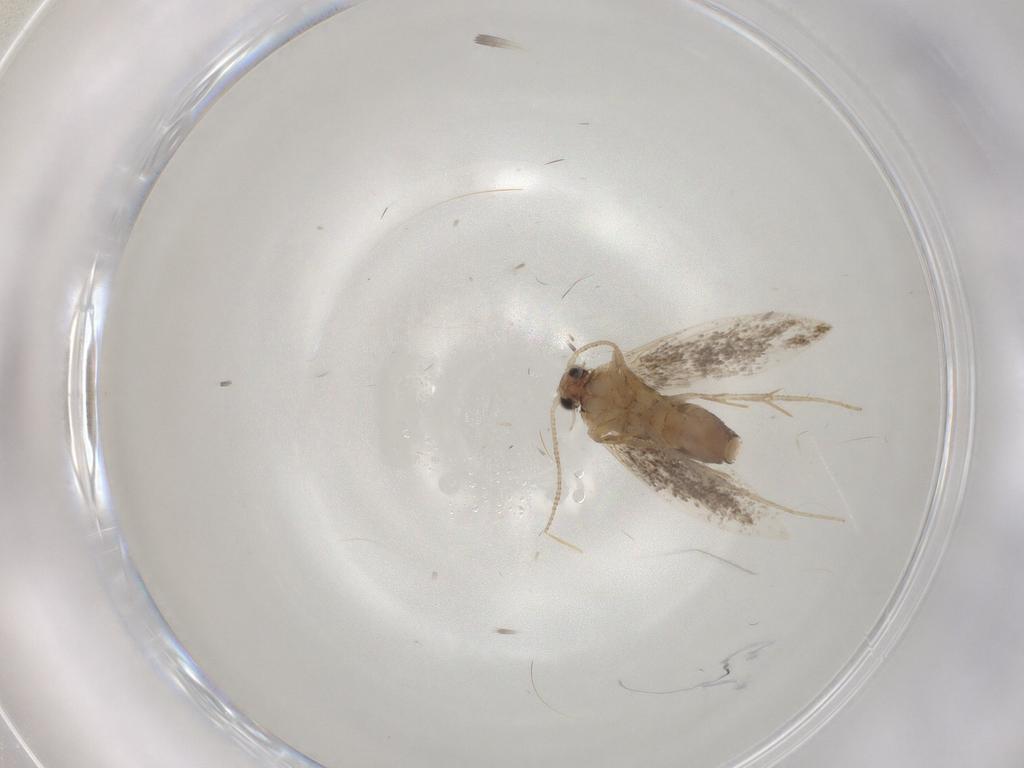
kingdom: Animalia
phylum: Arthropoda
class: Insecta
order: Lepidoptera
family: Tineidae
